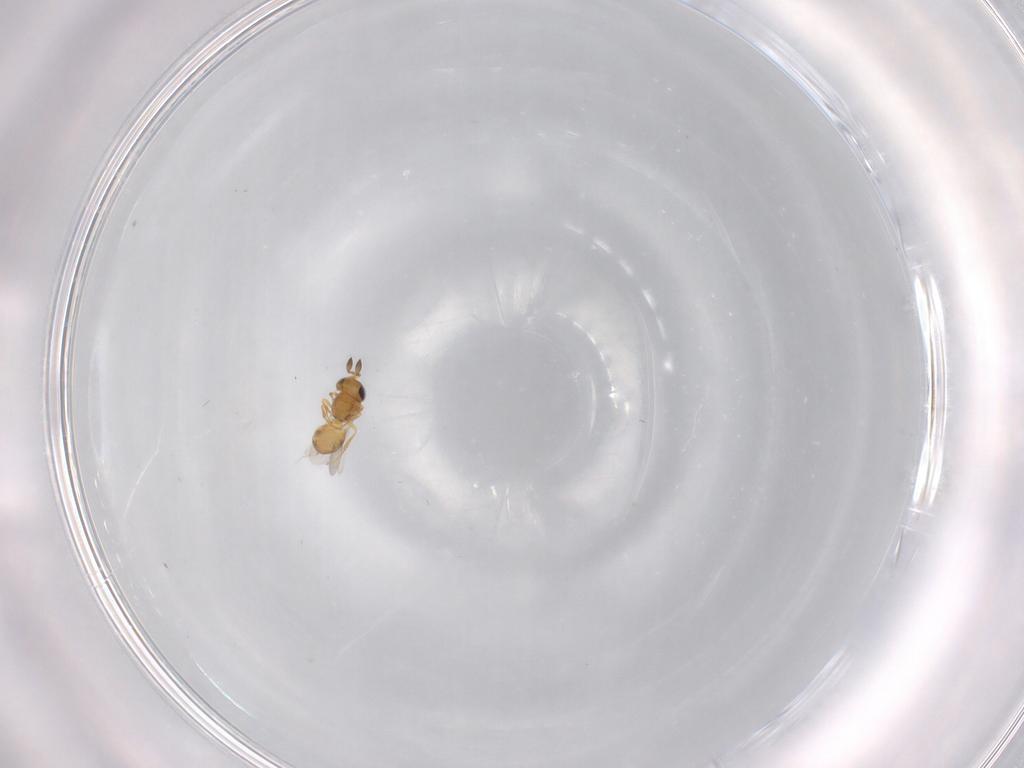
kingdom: Animalia
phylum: Arthropoda
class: Insecta
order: Hymenoptera
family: Scelionidae
